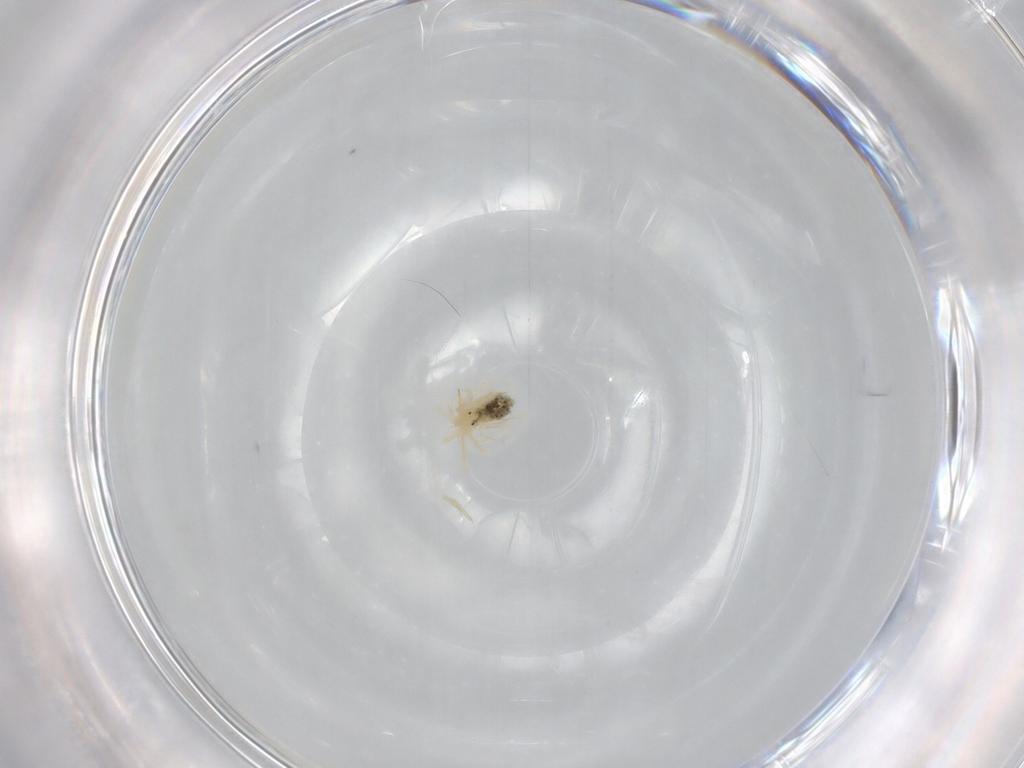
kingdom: Animalia
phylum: Arthropoda
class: Arachnida
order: Trombidiformes
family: Anystidae
